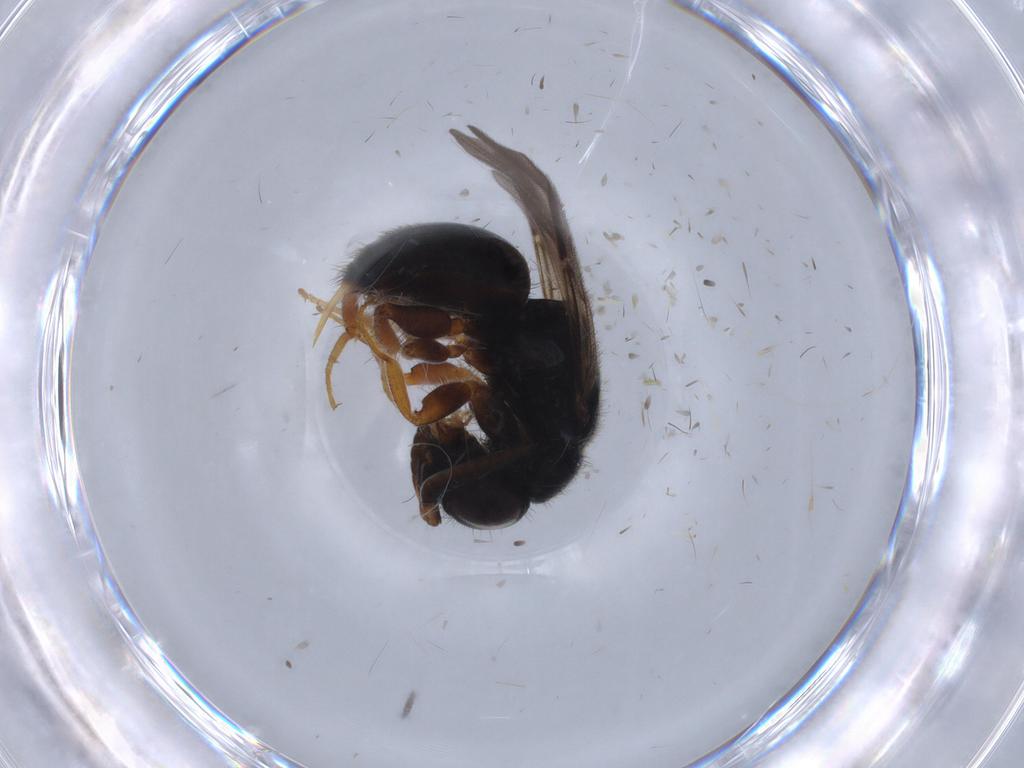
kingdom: Animalia
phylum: Arthropoda
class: Insecta
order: Hymenoptera
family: Chrysididae
